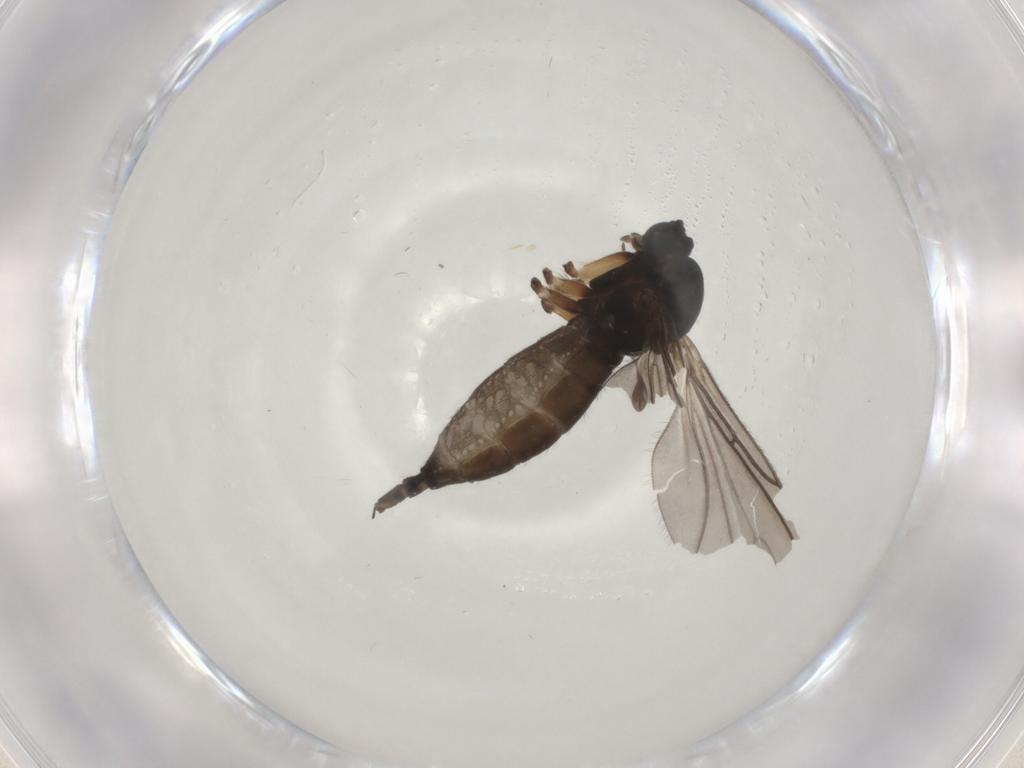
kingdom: Animalia
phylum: Arthropoda
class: Insecta
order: Diptera
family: Sciaridae
